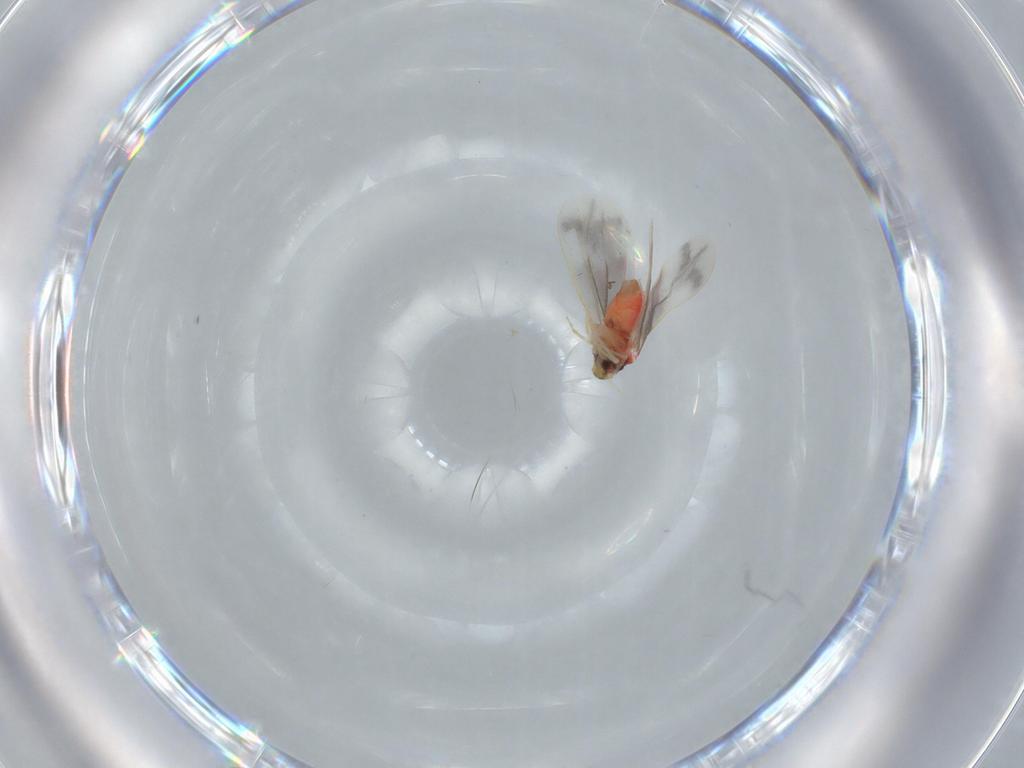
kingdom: Animalia
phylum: Arthropoda
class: Insecta
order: Hemiptera
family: Aleyrodidae
